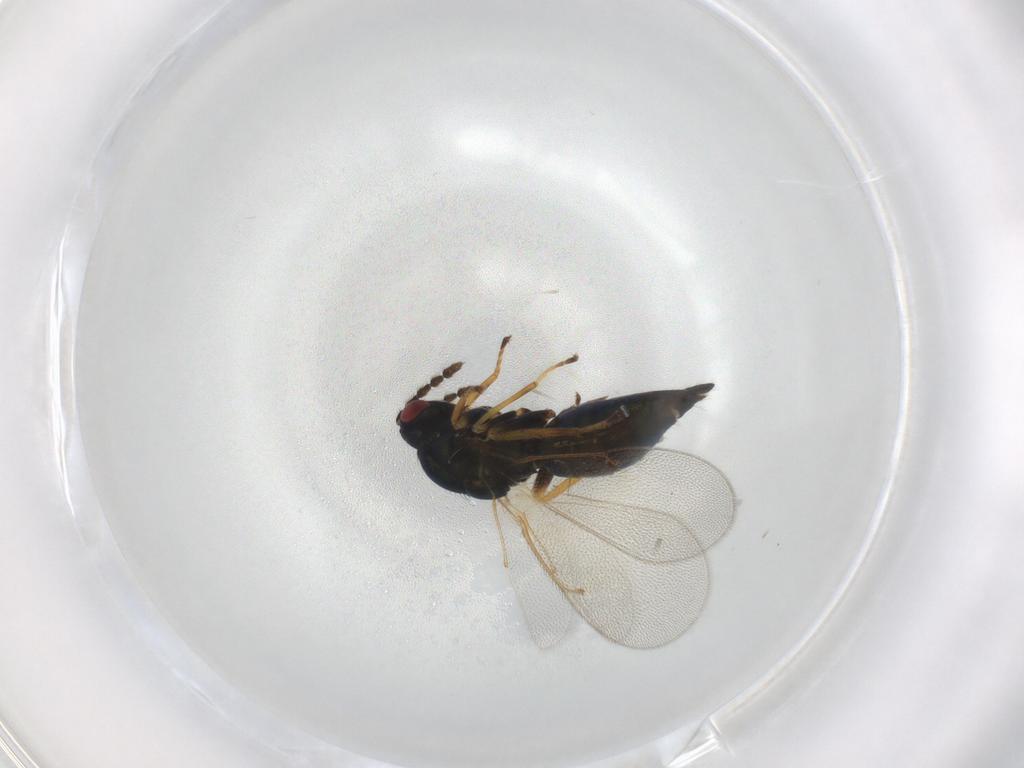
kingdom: Animalia
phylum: Arthropoda
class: Insecta
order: Hymenoptera
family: Eulophidae
